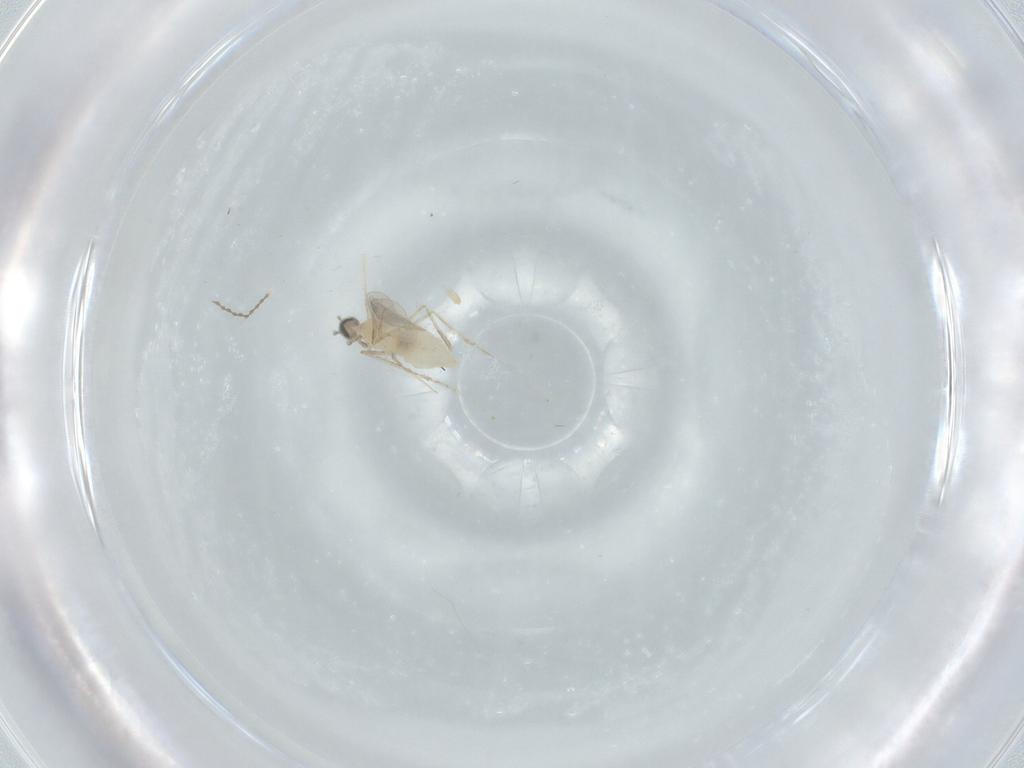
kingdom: Animalia
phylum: Arthropoda
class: Insecta
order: Diptera
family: Cecidomyiidae
